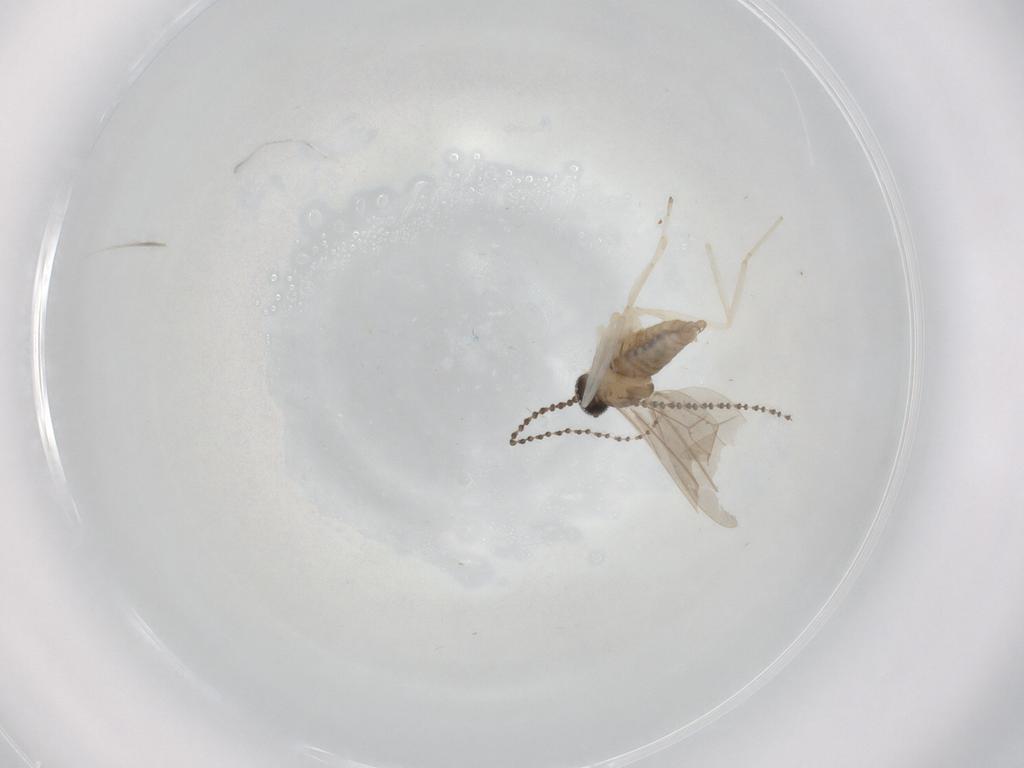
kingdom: Animalia
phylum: Arthropoda
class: Insecta
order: Diptera
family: Cecidomyiidae
